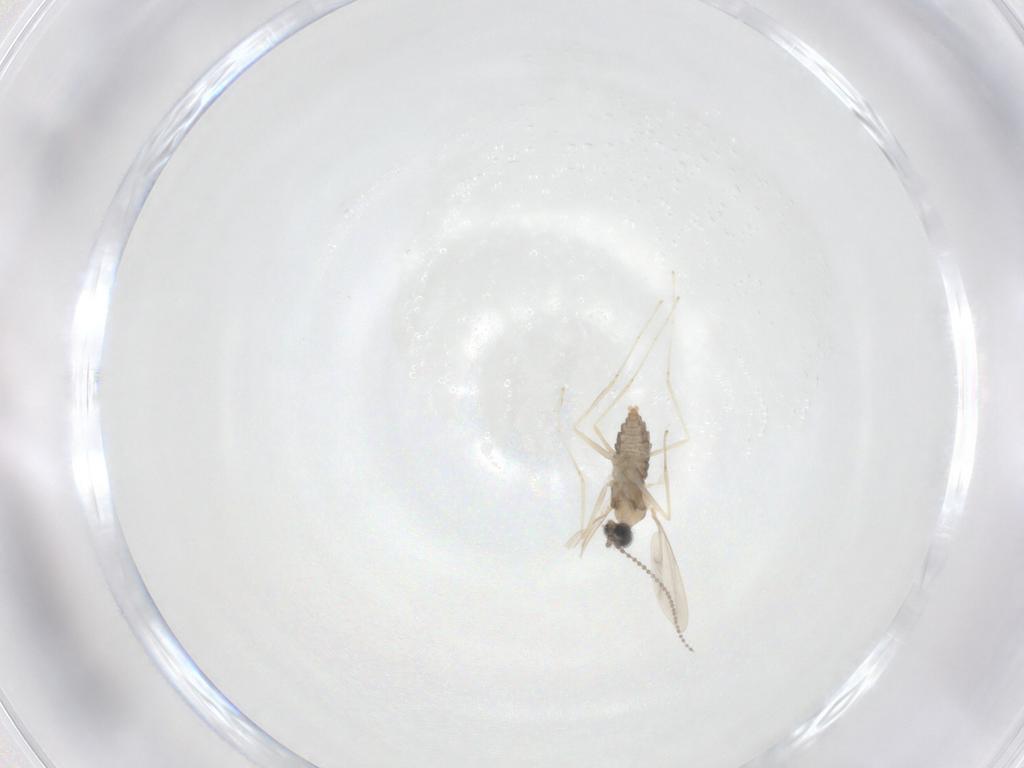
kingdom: Animalia
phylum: Arthropoda
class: Insecta
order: Diptera
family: Cecidomyiidae
